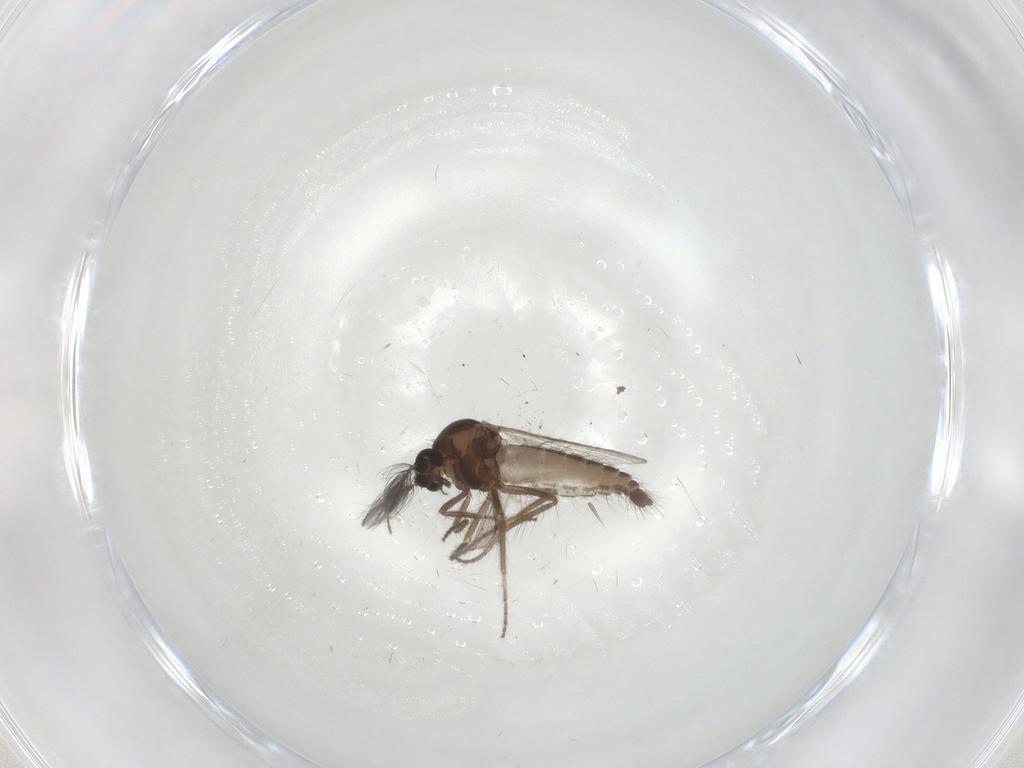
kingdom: Animalia
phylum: Arthropoda
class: Insecta
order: Diptera
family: Ceratopogonidae
